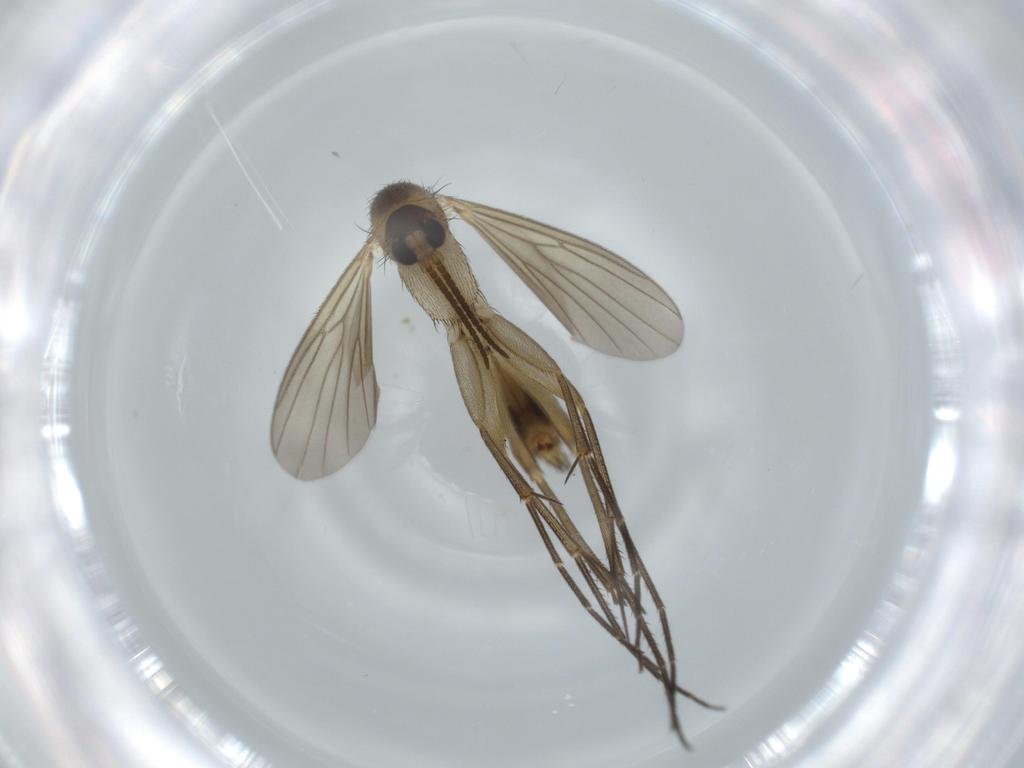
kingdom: Animalia
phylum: Arthropoda
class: Insecta
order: Diptera
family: Mycetophilidae
